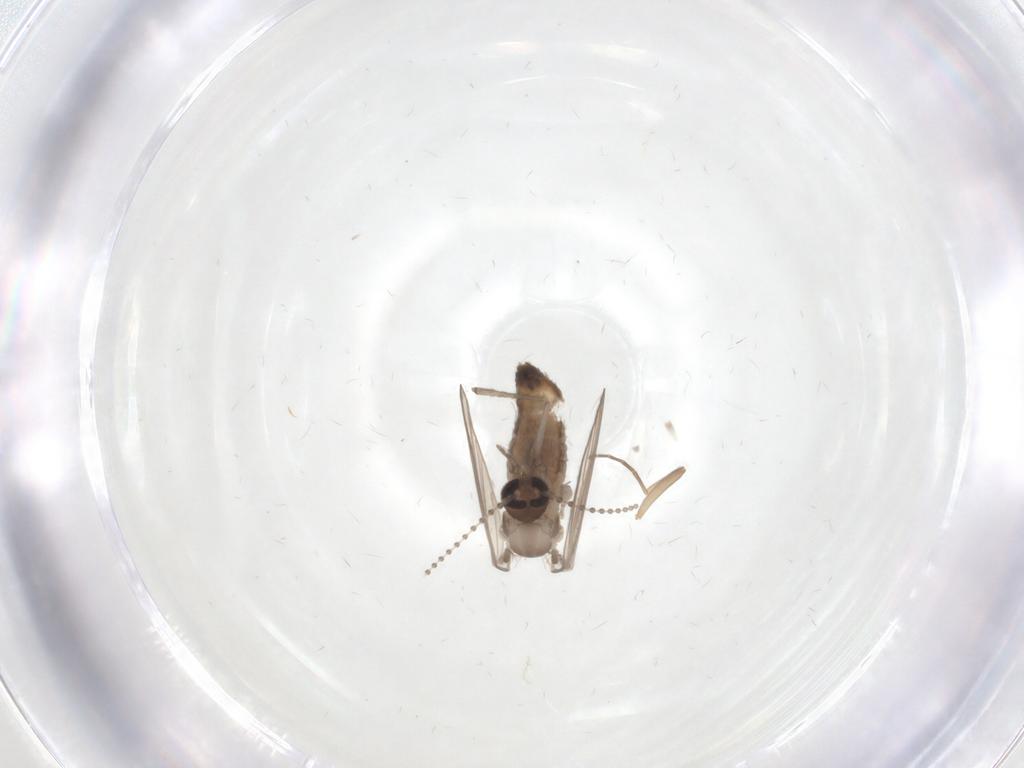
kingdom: Animalia
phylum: Arthropoda
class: Insecta
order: Diptera
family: Psychodidae
